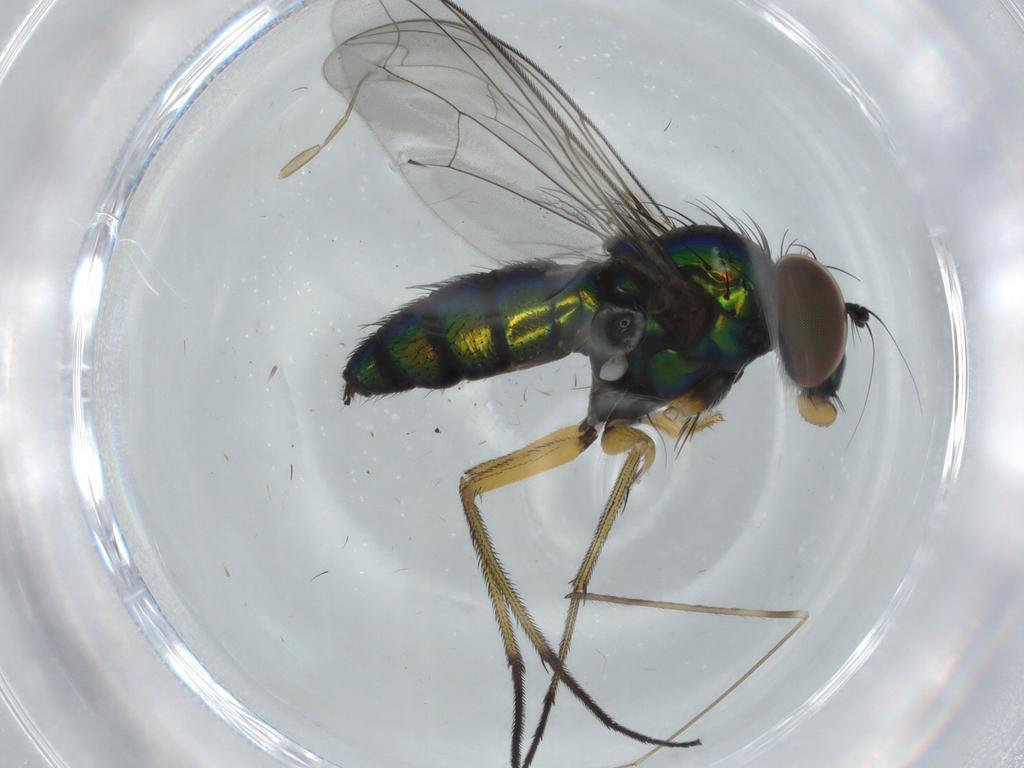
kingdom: Animalia
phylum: Arthropoda
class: Insecta
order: Diptera
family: Dolichopodidae
